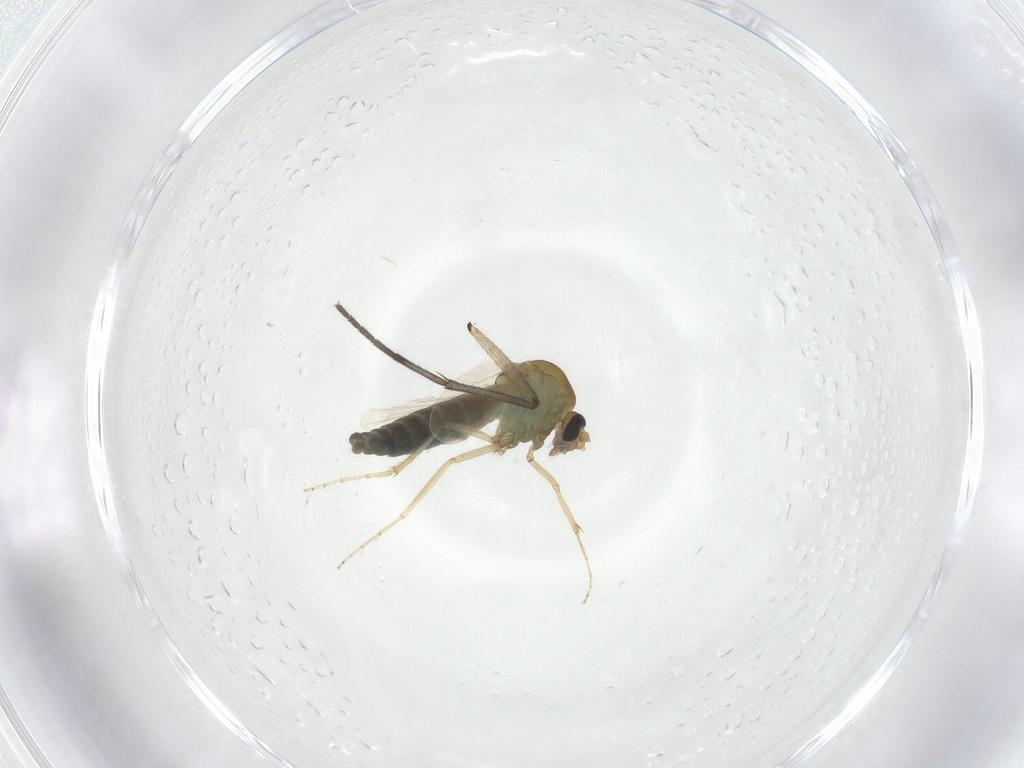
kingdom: Animalia
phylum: Arthropoda
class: Insecta
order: Diptera
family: Ceratopogonidae
